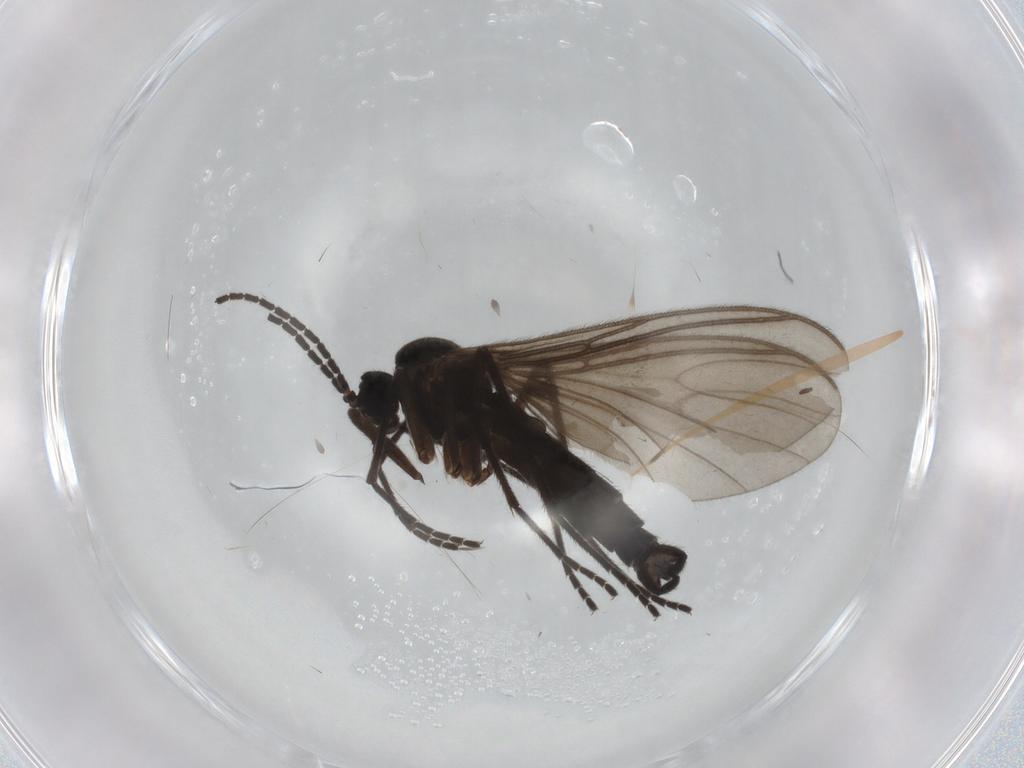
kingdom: Animalia
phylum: Arthropoda
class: Insecta
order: Diptera
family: Sciaridae
